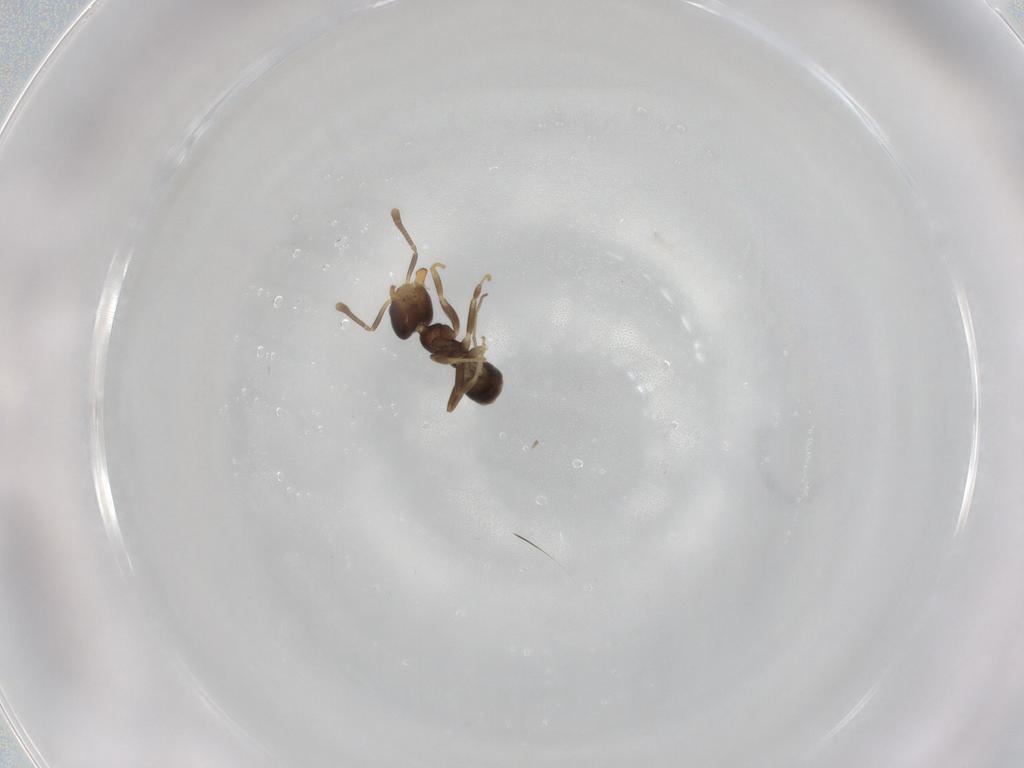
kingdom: Animalia
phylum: Arthropoda
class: Insecta
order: Hymenoptera
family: Formicidae
